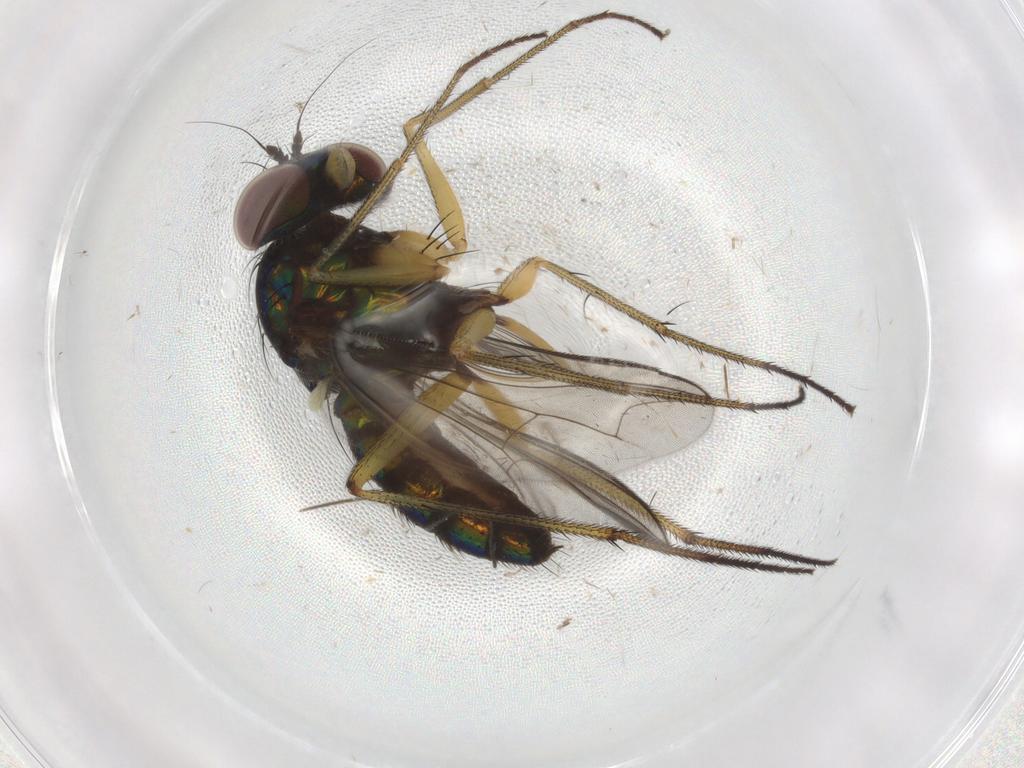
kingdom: Animalia
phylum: Arthropoda
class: Insecta
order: Diptera
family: Dolichopodidae
